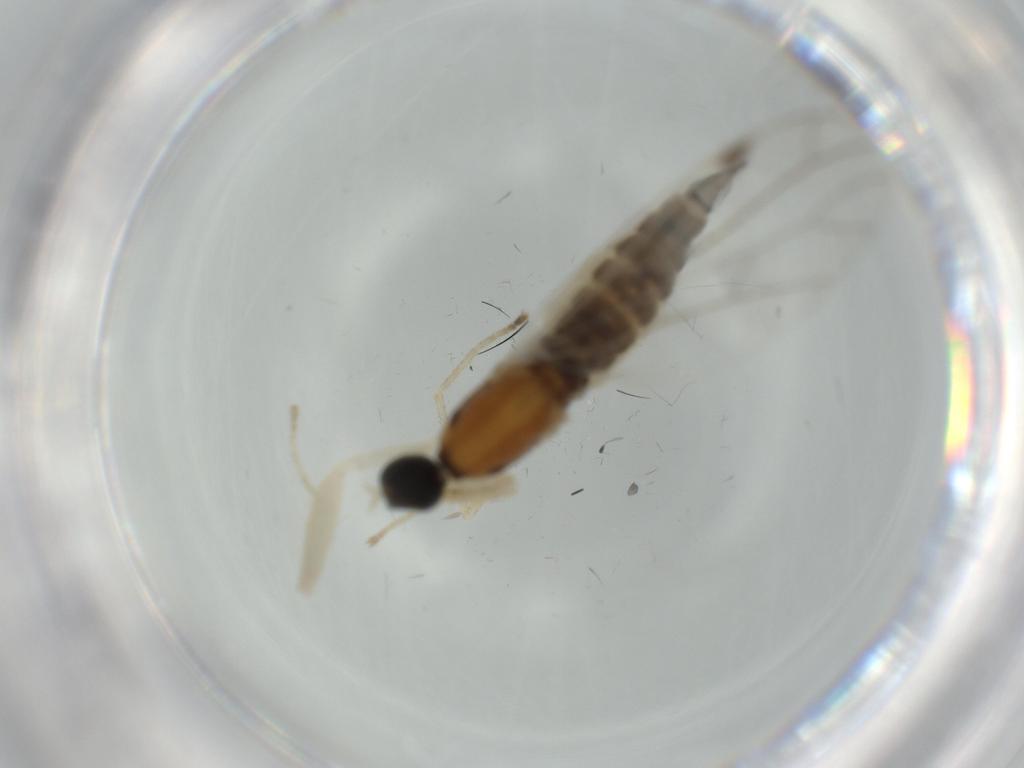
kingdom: Animalia
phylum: Arthropoda
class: Insecta
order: Diptera
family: Empididae
